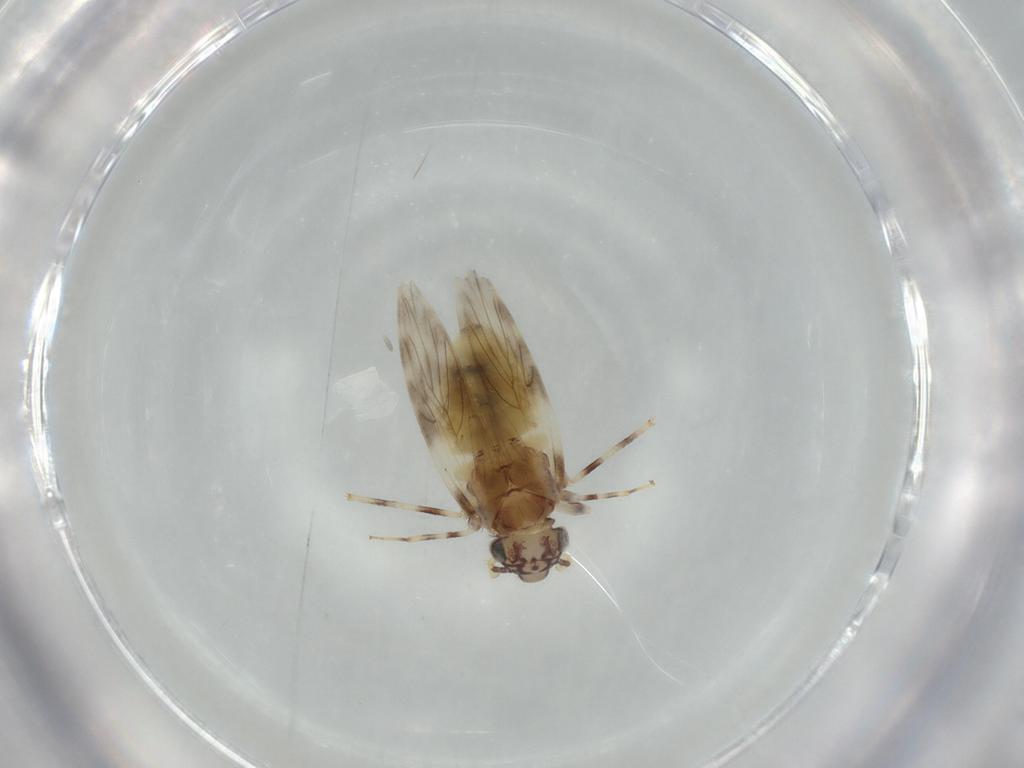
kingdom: Animalia
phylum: Arthropoda
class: Insecta
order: Psocodea
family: Lepidopsocidae
